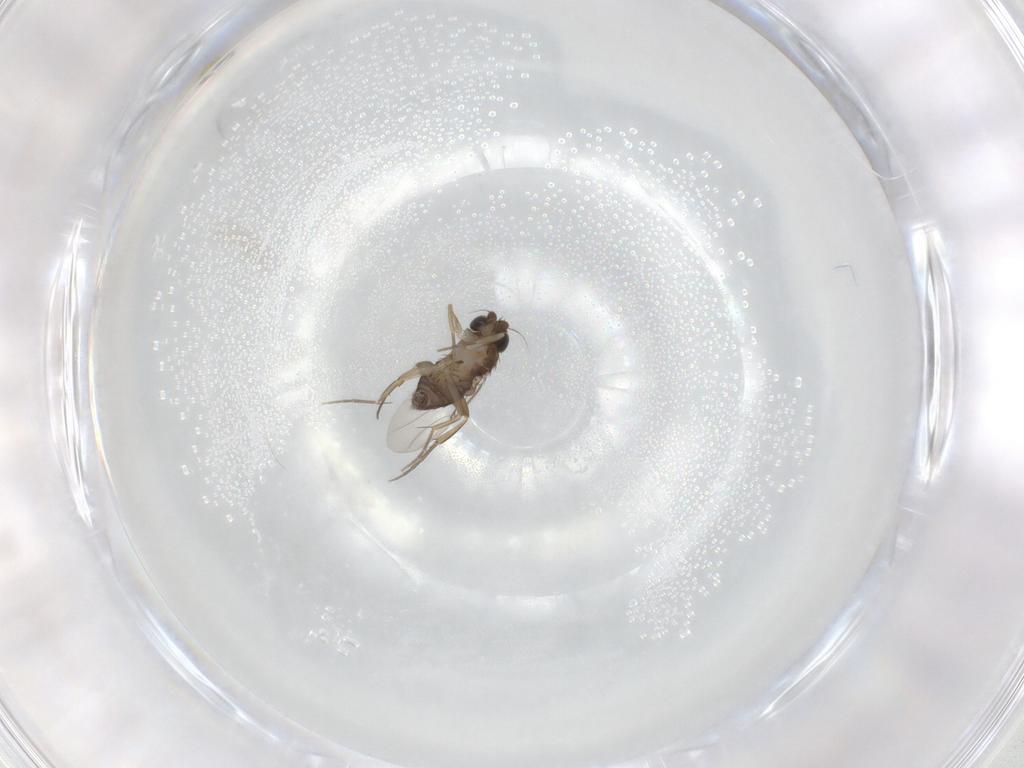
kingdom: Animalia
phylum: Arthropoda
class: Insecta
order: Diptera
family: Phoridae
